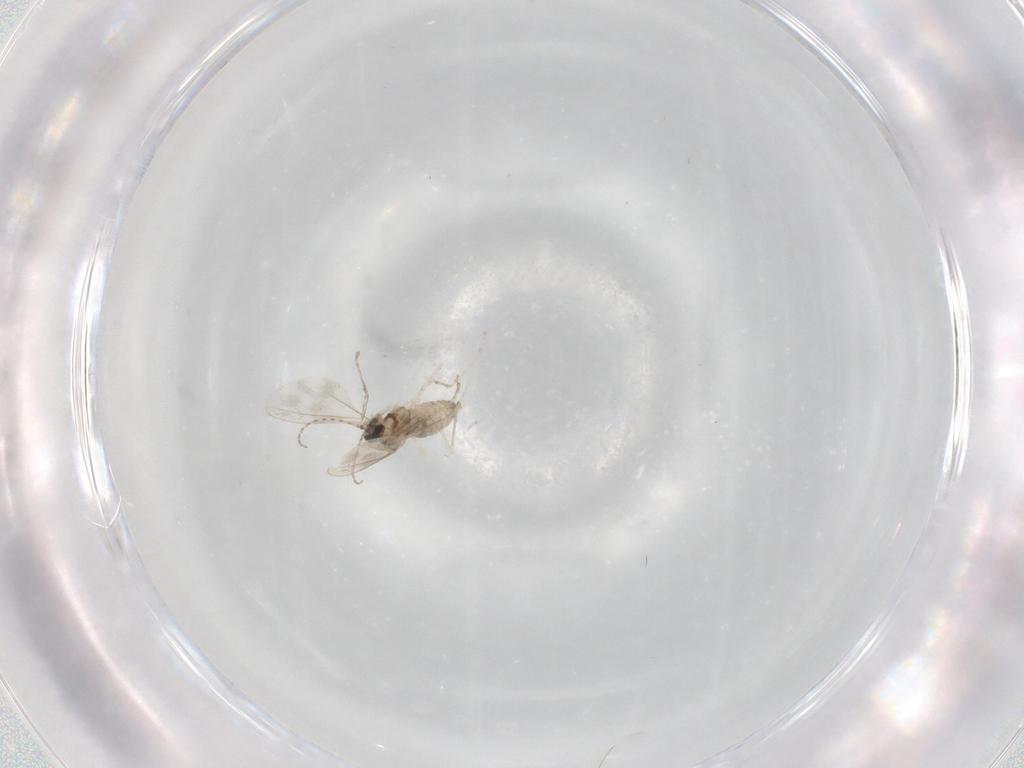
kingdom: Animalia
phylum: Arthropoda
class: Insecta
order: Diptera
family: Cecidomyiidae
